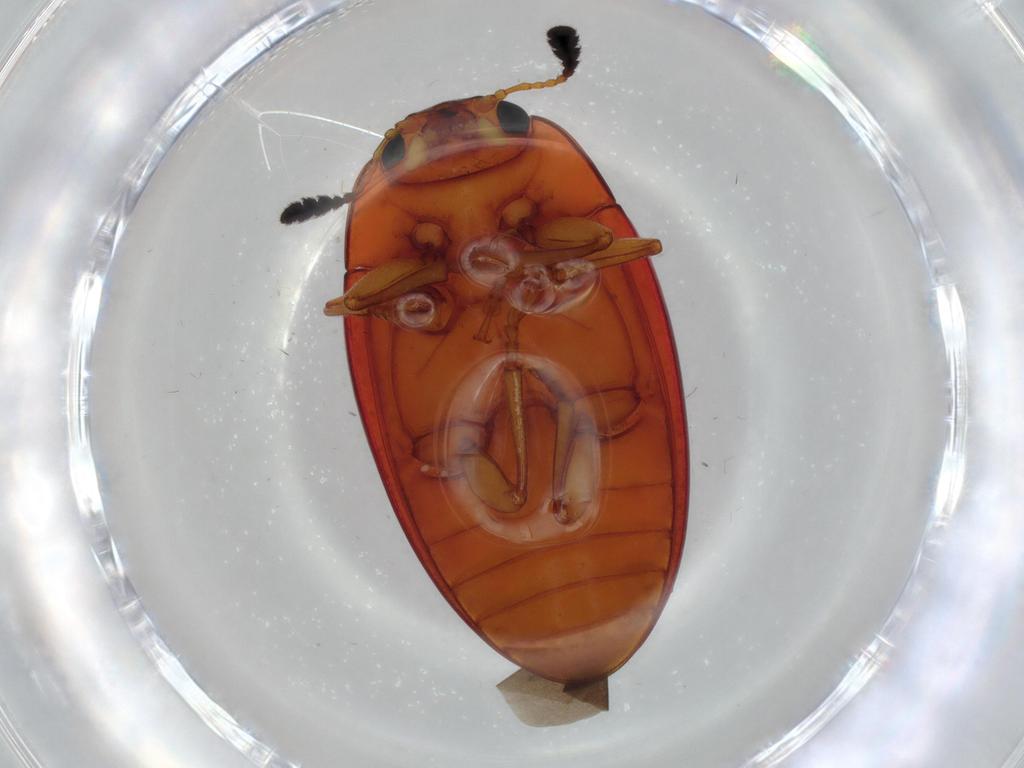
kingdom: Animalia
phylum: Arthropoda
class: Insecta
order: Coleoptera
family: Erotylidae
